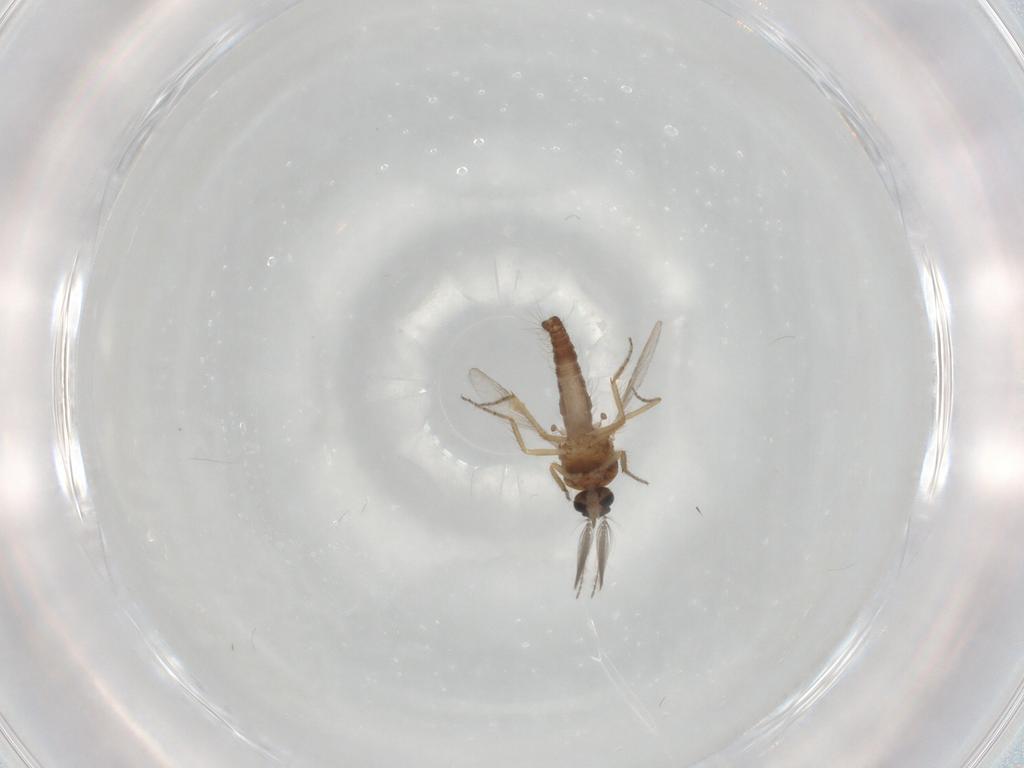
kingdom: Animalia
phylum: Arthropoda
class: Insecta
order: Diptera
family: Ceratopogonidae
